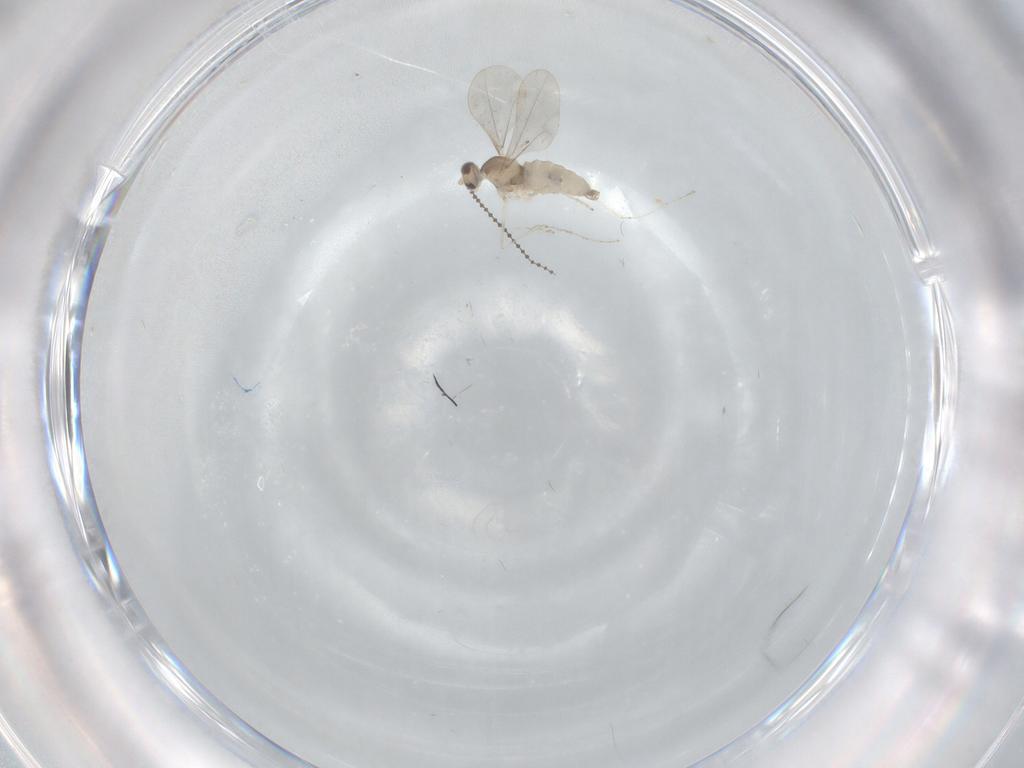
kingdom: Animalia
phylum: Arthropoda
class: Insecta
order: Diptera
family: Cecidomyiidae
